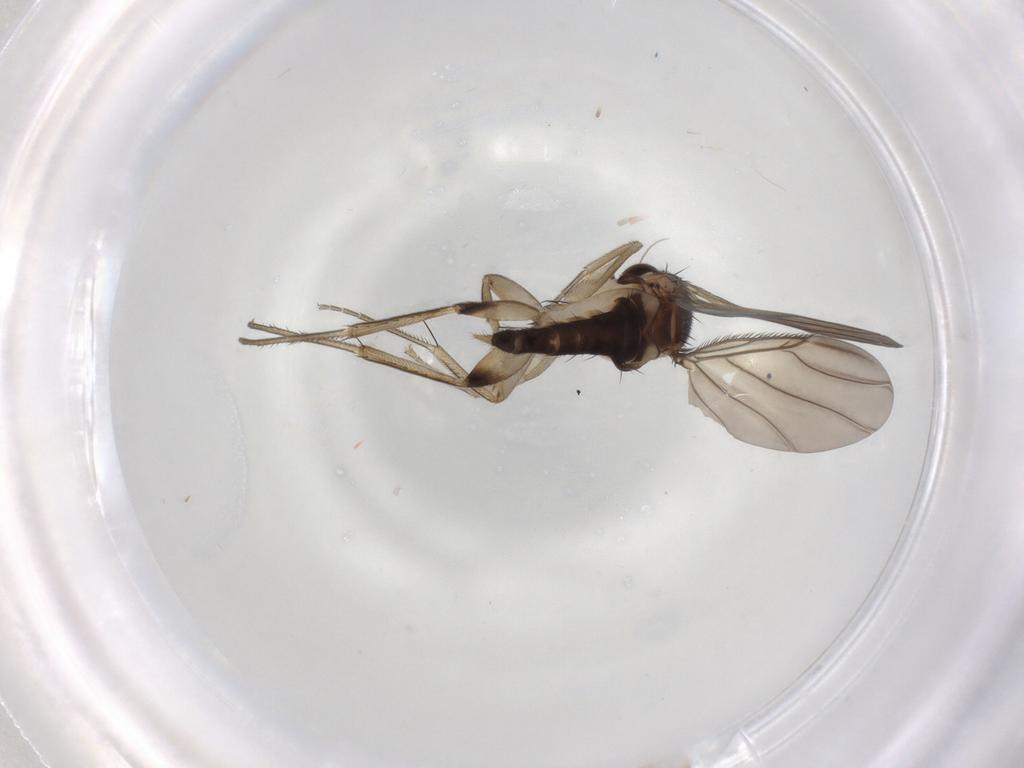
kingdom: Animalia
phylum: Arthropoda
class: Insecta
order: Diptera
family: Phoridae
